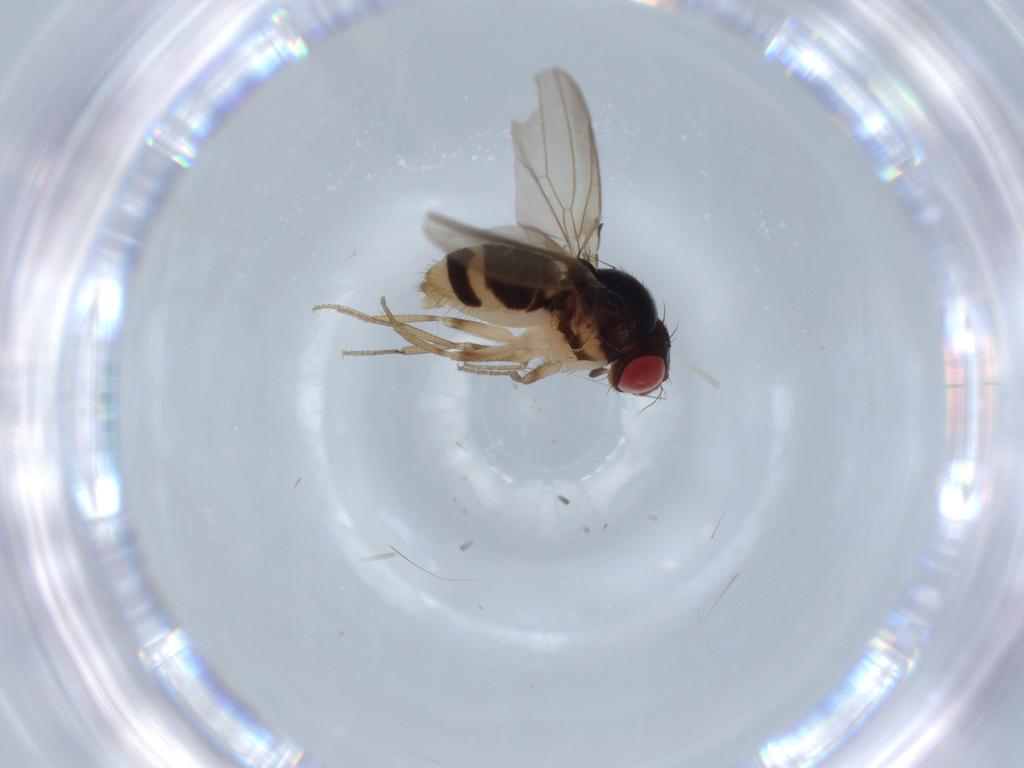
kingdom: Animalia
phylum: Arthropoda
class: Insecta
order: Diptera
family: Drosophilidae
